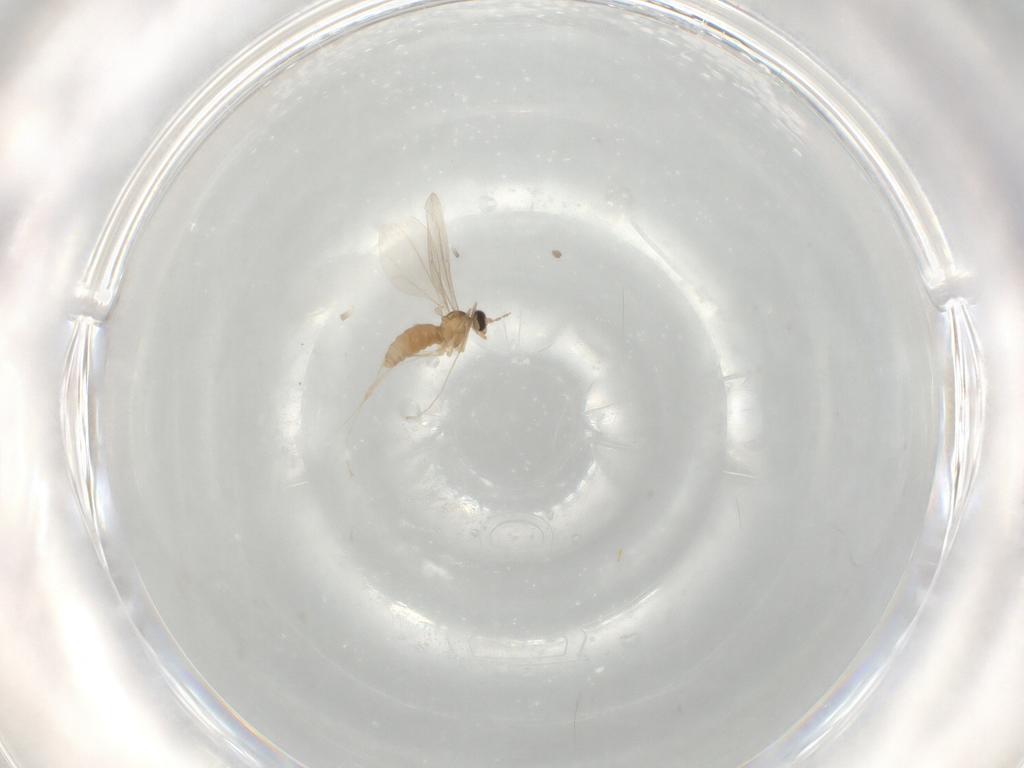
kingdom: Animalia
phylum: Arthropoda
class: Insecta
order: Diptera
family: Cecidomyiidae
